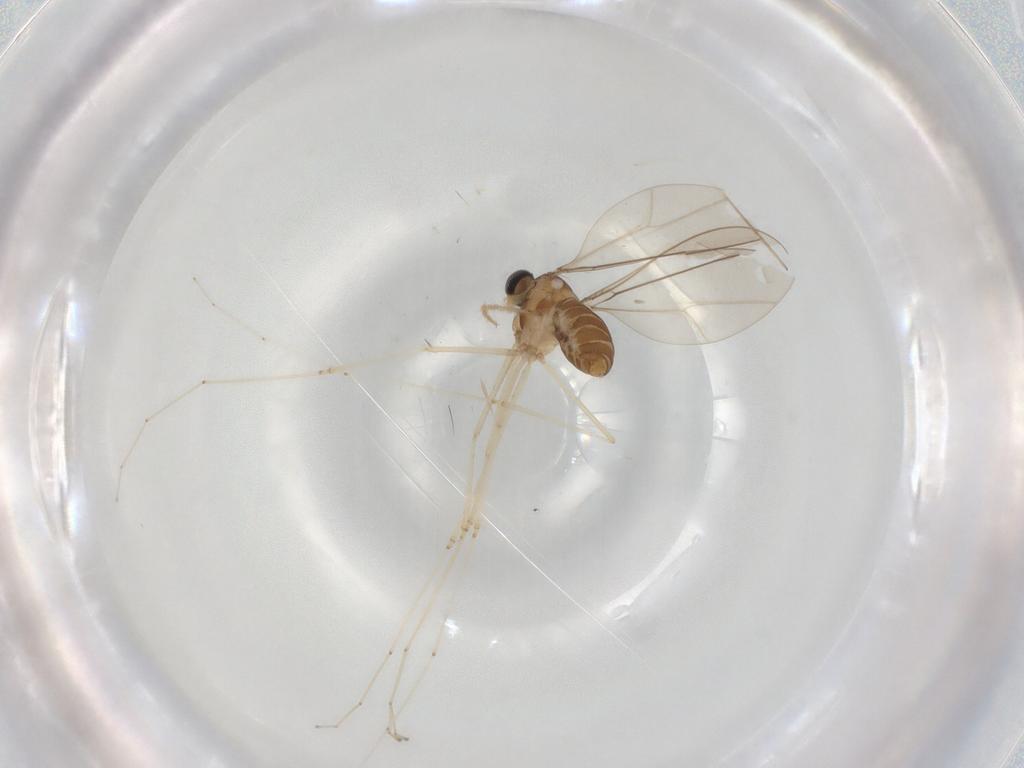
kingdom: Animalia
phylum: Arthropoda
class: Insecta
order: Diptera
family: Cecidomyiidae
